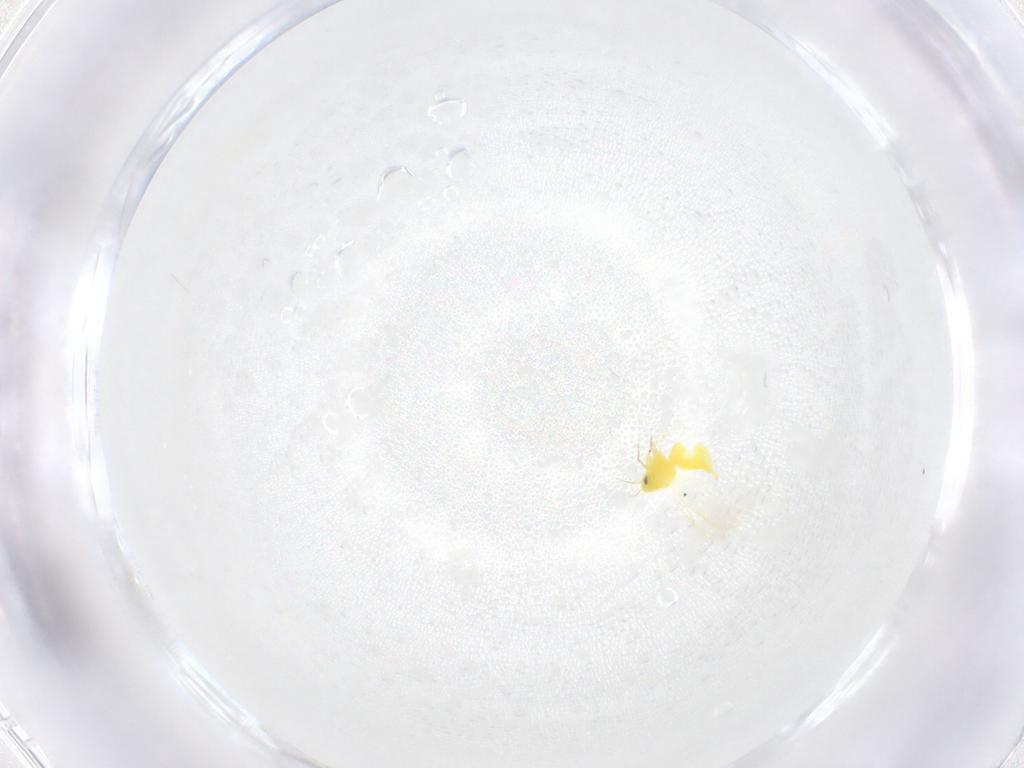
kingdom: Animalia
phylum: Arthropoda
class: Insecta
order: Hemiptera
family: Aleyrodidae
